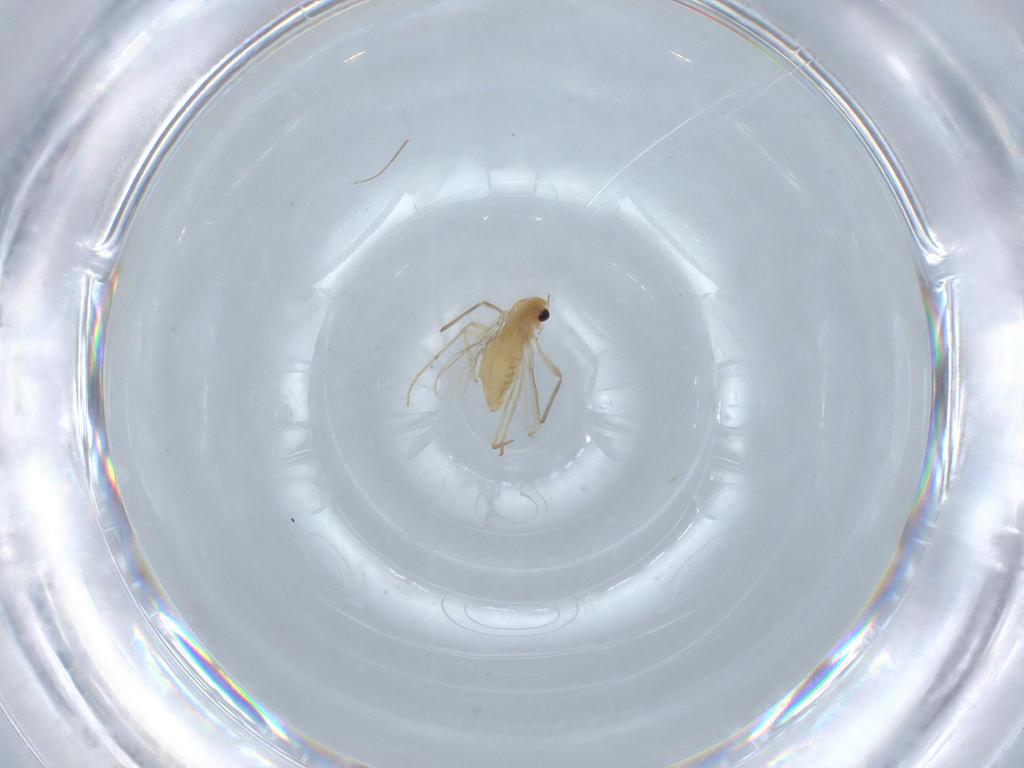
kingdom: Animalia
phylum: Arthropoda
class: Insecta
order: Diptera
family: Chironomidae
